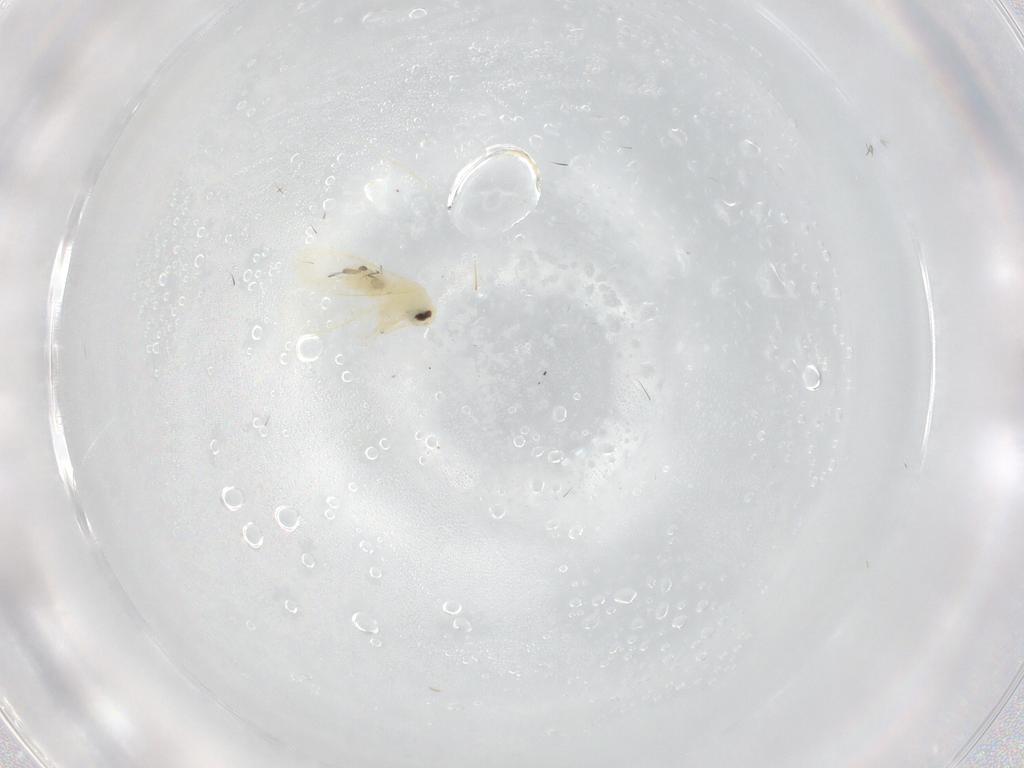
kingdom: Animalia
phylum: Arthropoda
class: Insecta
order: Hemiptera
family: Aleyrodidae
